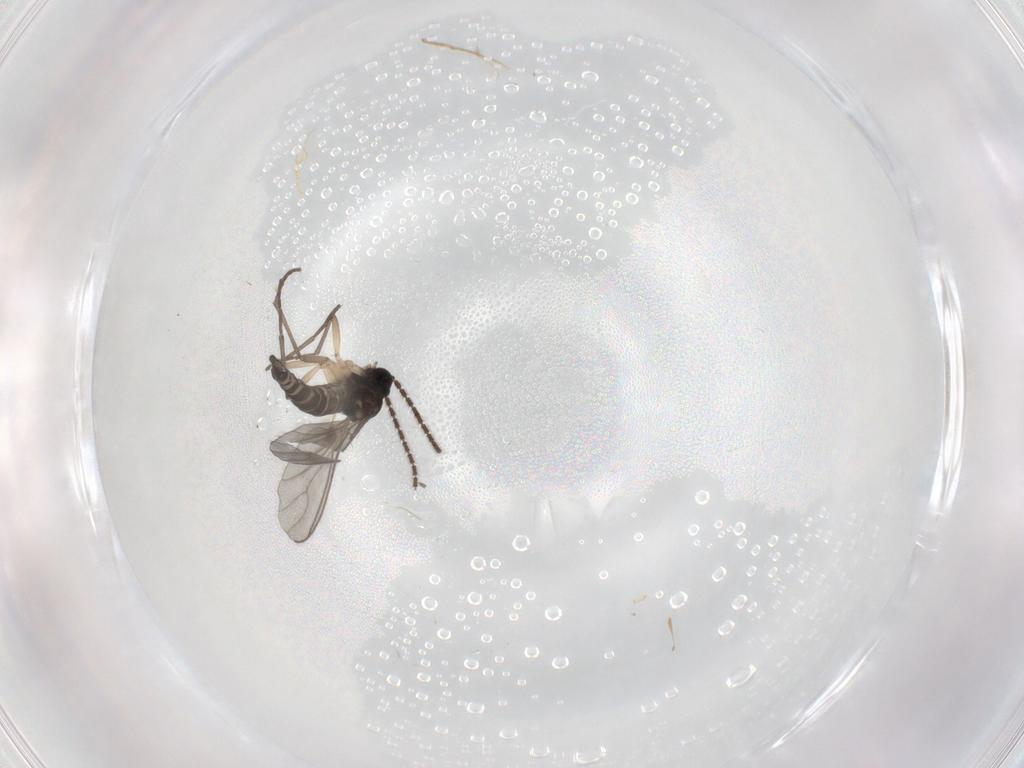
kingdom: Animalia
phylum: Arthropoda
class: Insecta
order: Diptera
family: Sciaridae
